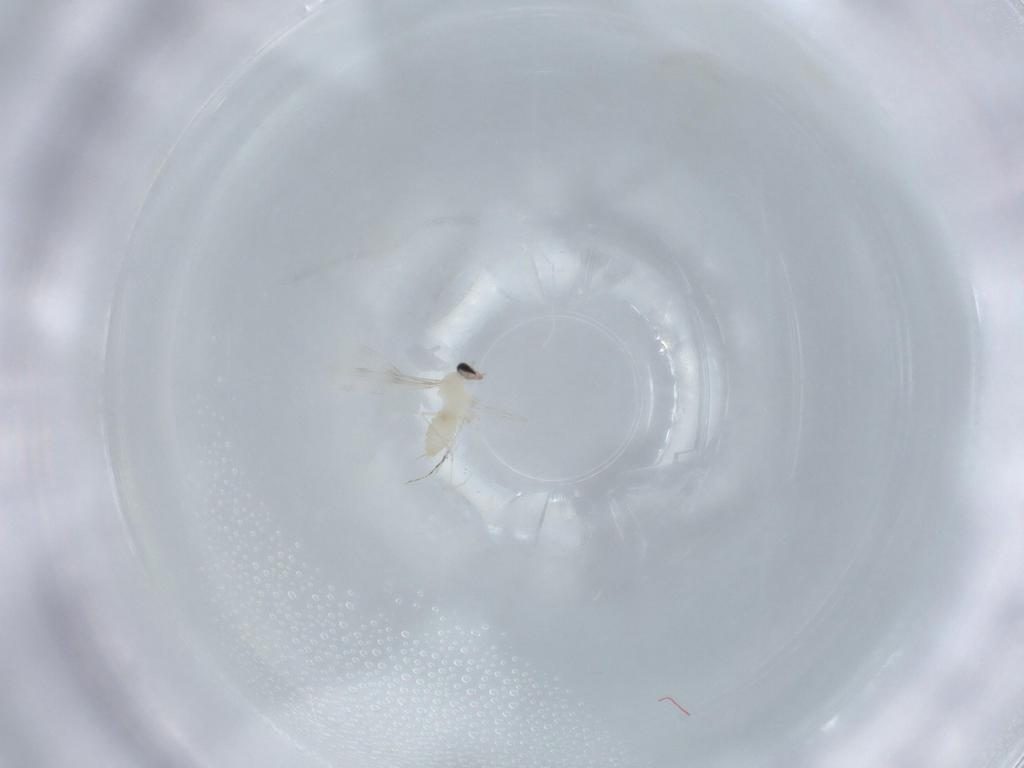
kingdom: Animalia
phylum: Arthropoda
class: Insecta
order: Diptera
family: Cecidomyiidae
